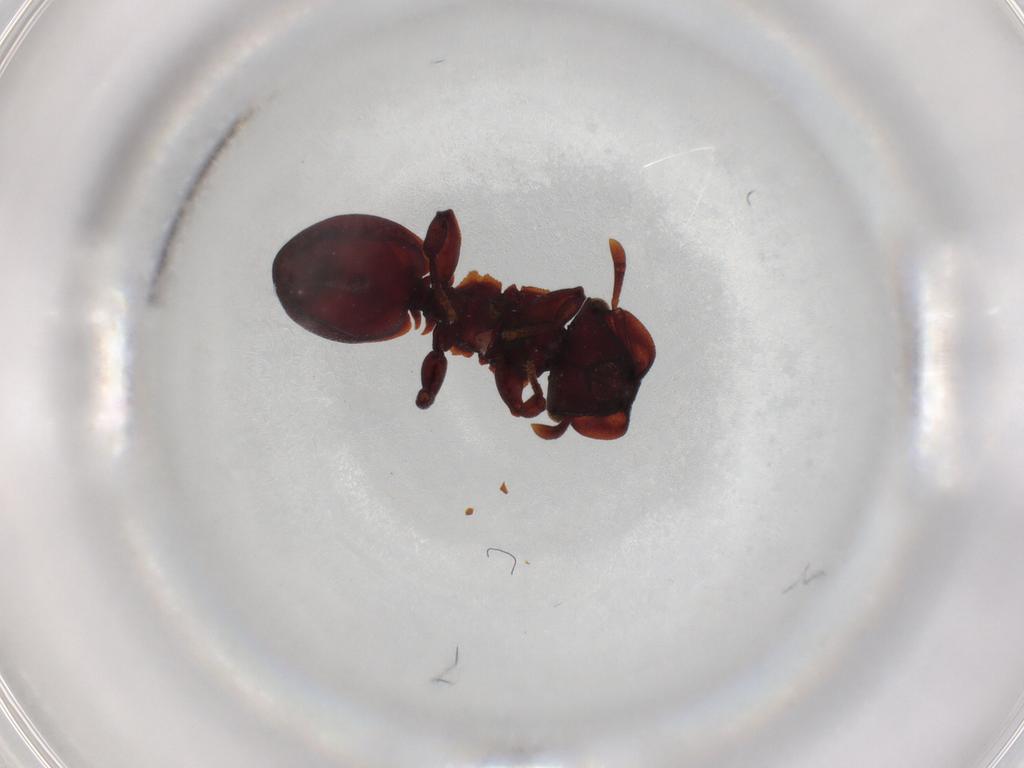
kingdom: Animalia
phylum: Arthropoda
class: Insecta
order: Hymenoptera
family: Formicidae
